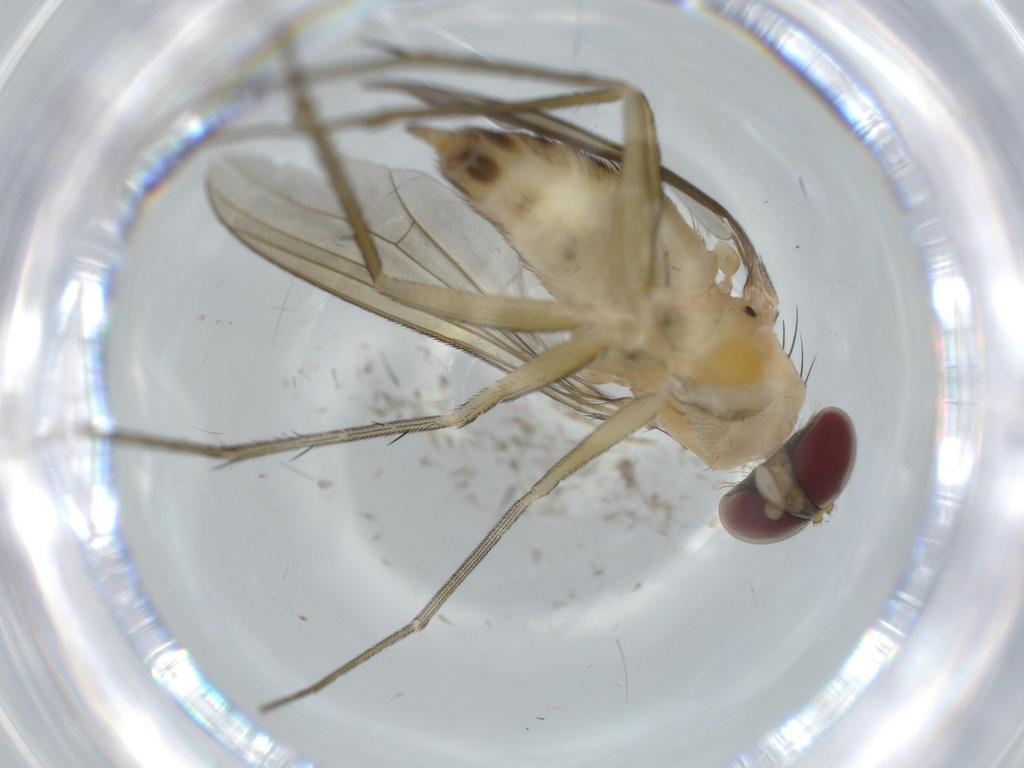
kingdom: Animalia
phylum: Arthropoda
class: Insecta
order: Diptera
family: Dolichopodidae
